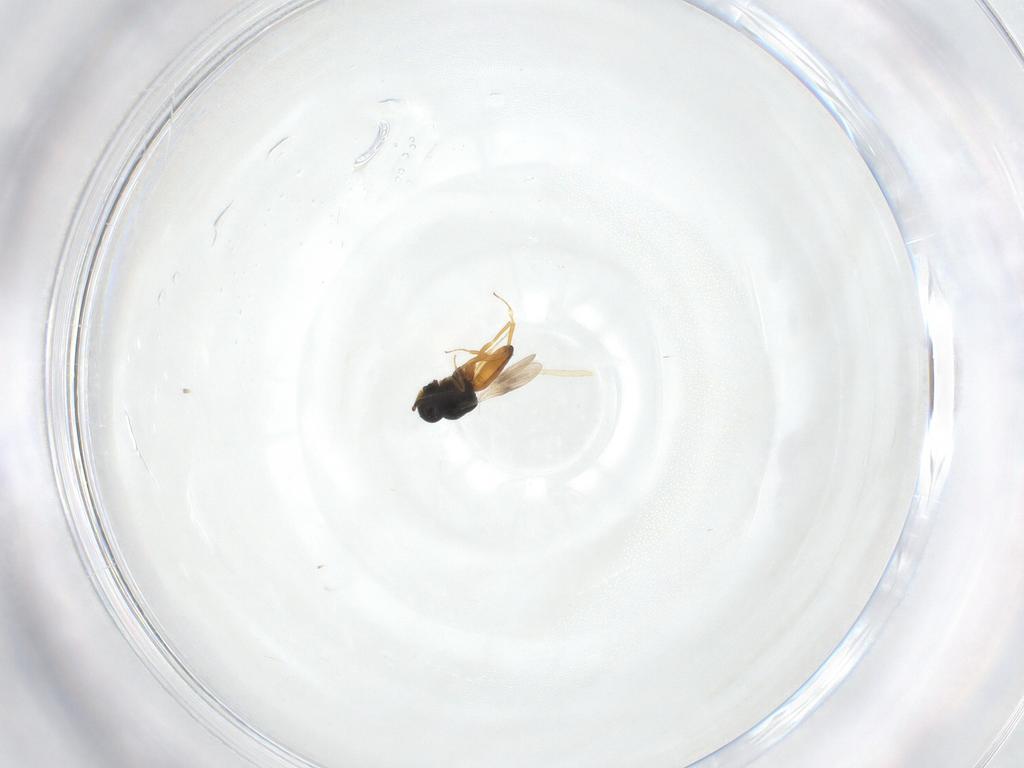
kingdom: Animalia
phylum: Arthropoda
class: Insecta
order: Hymenoptera
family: Scelionidae
